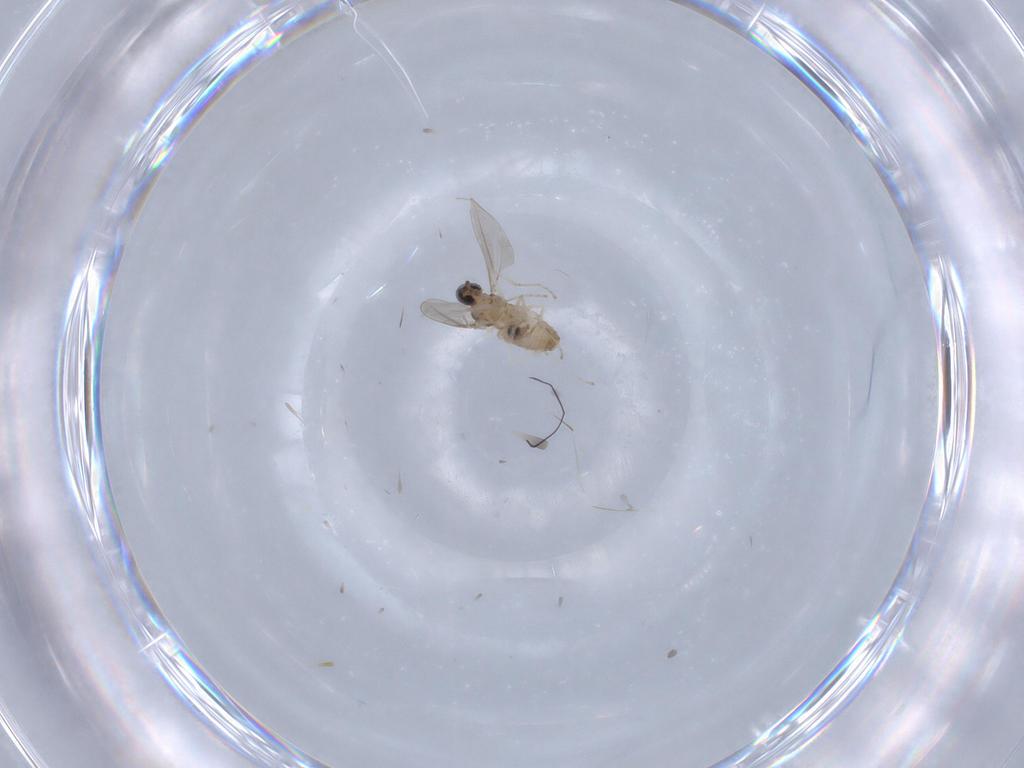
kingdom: Animalia
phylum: Arthropoda
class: Insecta
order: Diptera
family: Cecidomyiidae
